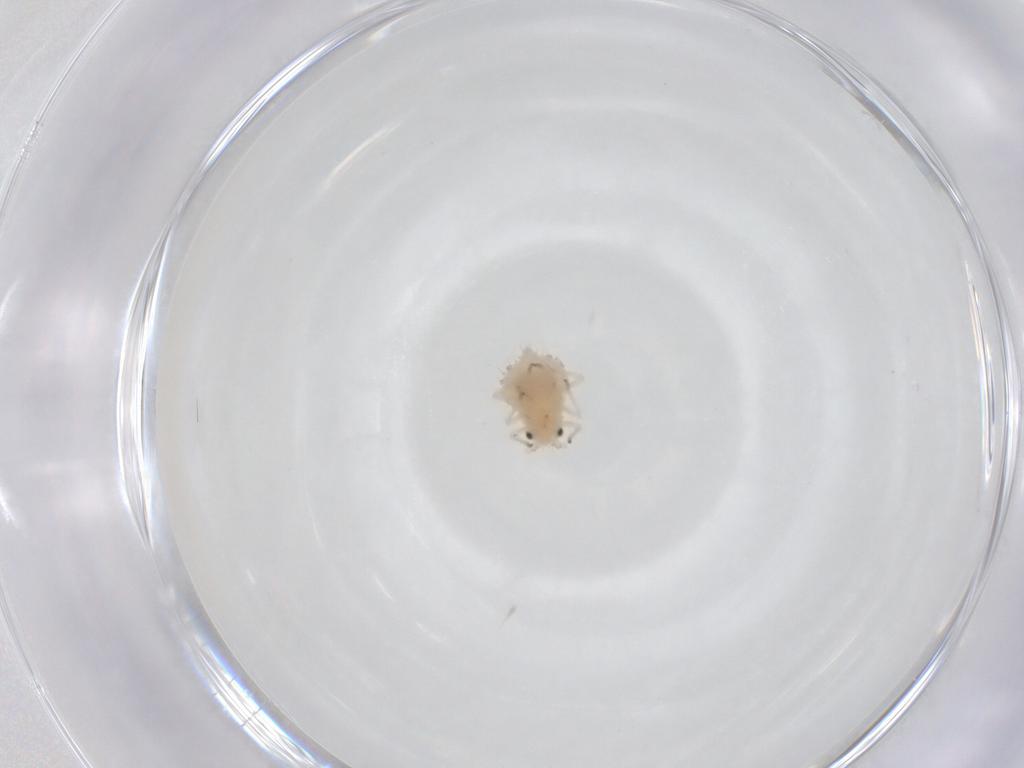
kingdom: Animalia
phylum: Arthropoda
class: Insecta
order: Hemiptera
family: Aphididae
